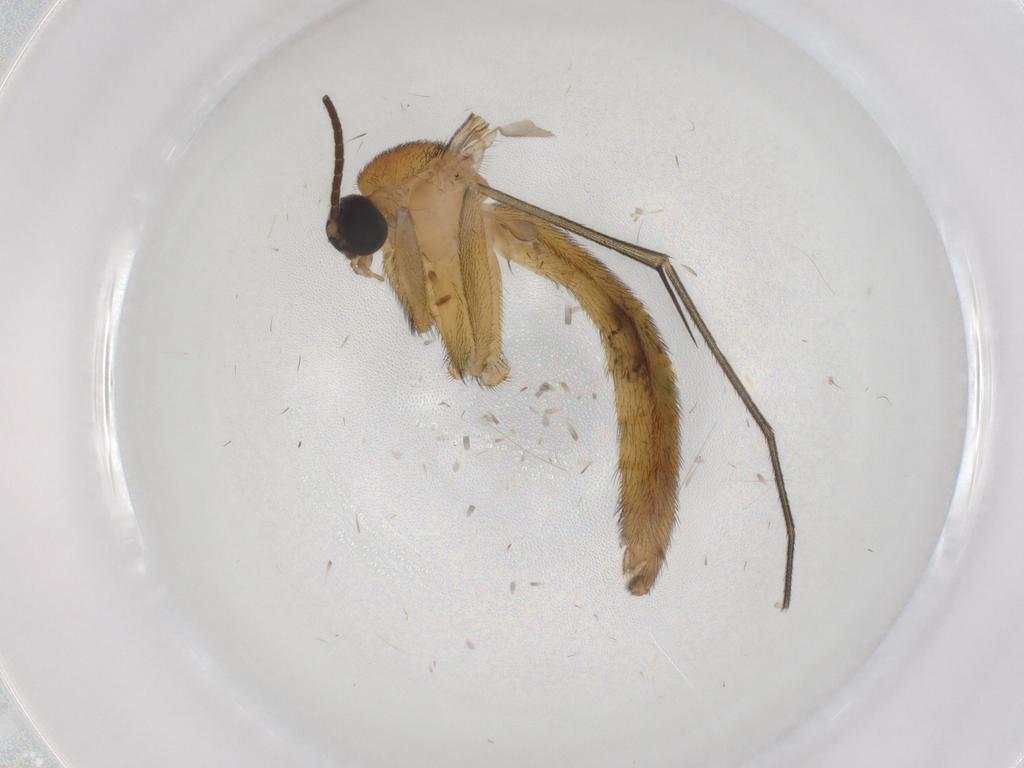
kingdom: Animalia
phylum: Arthropoda
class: Insecta
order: Diptera
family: Cecidomyiidae
